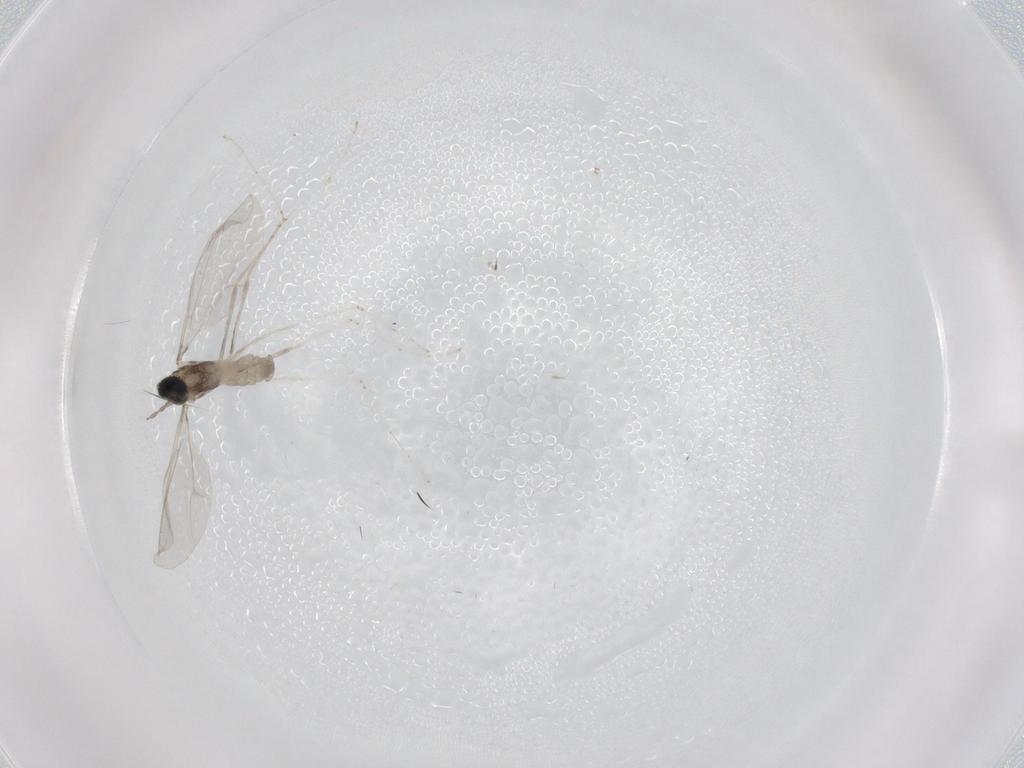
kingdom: Animalia
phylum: Arthropoda
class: Insecta
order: Diptera
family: Cecidomyiidae
